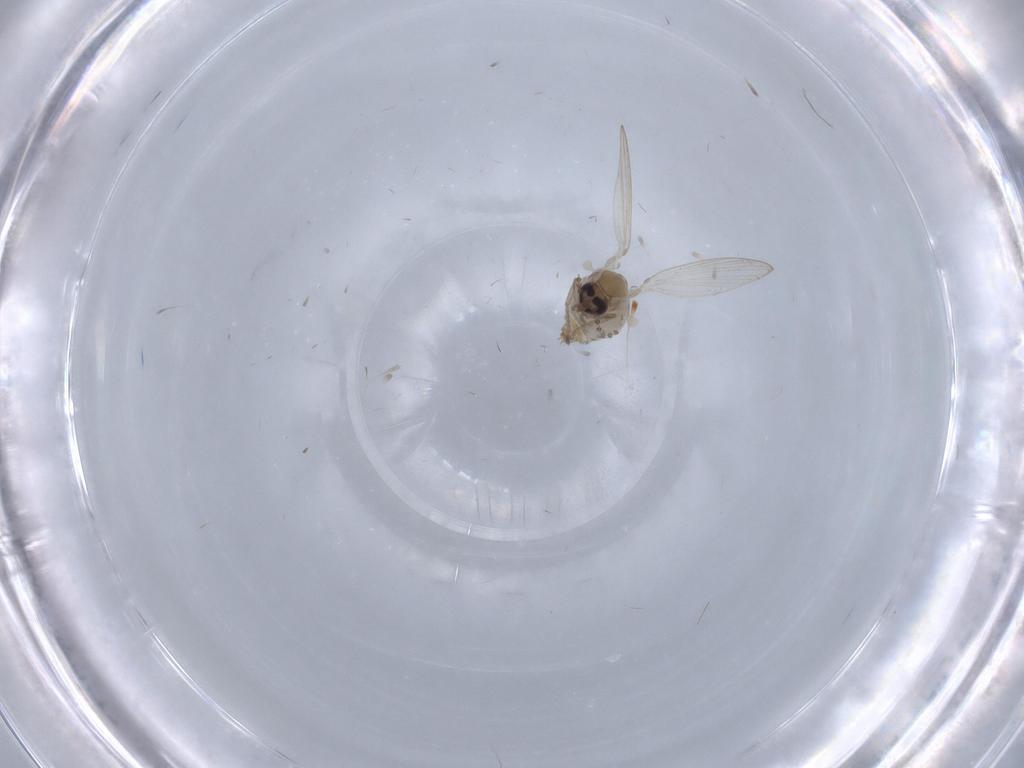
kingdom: Animalia
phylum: Arthropoda
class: Insecta
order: Diptera
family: Psychodidae
